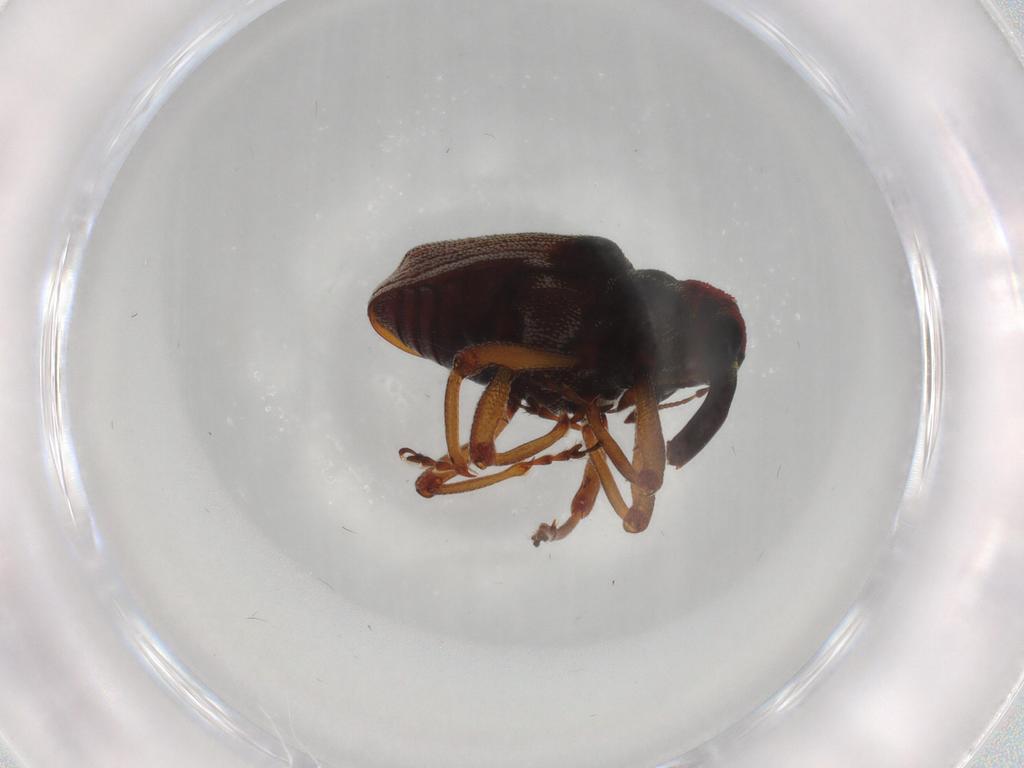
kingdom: Animalia
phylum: Arthropoda
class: Insecta
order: Coleoptera
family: Curculionidae
